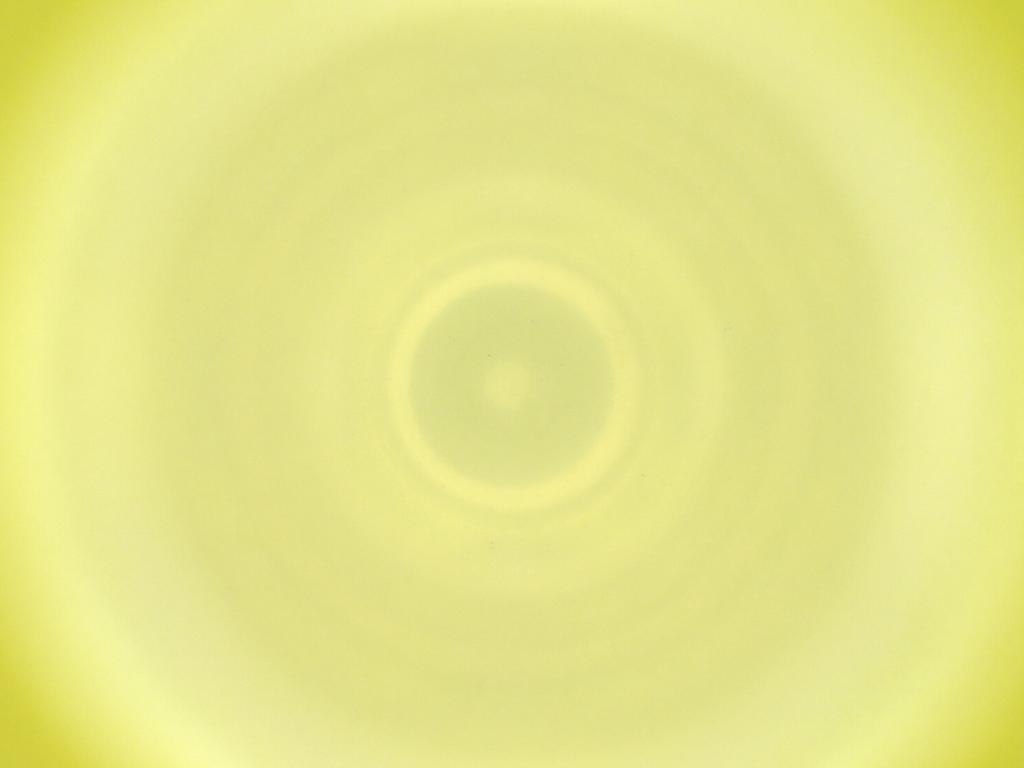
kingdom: Animalia
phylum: Arthropoda
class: Insecta
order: Diptera
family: Cecidomyiidae
